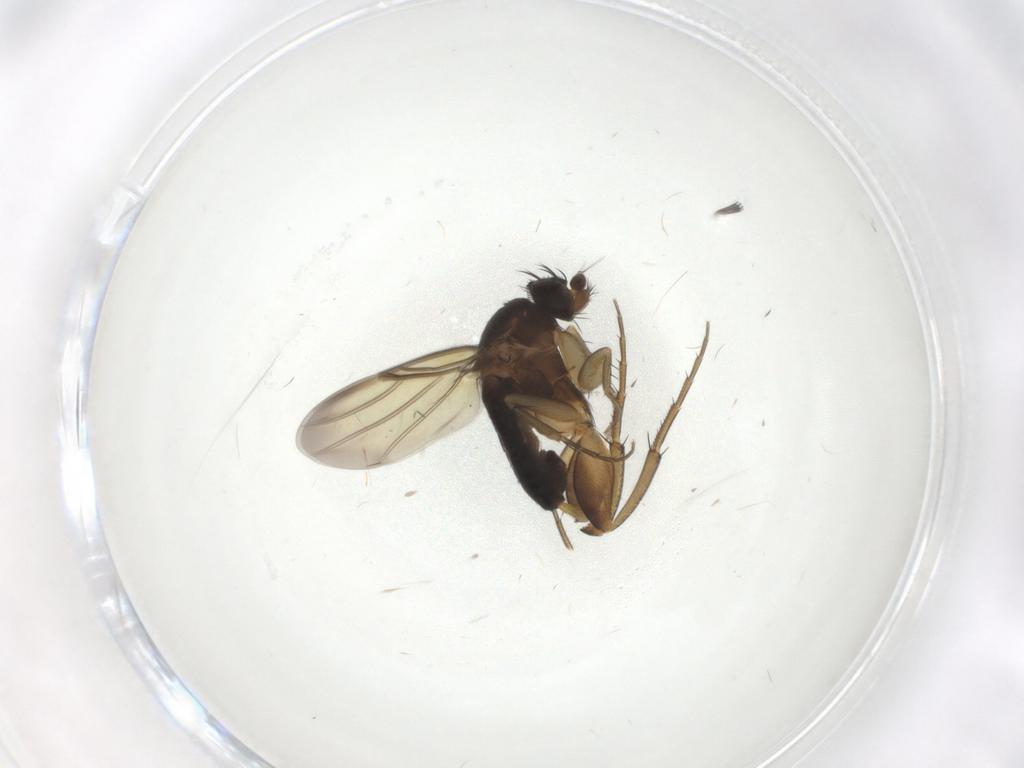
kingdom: Animalia
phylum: Arthropoda
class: Insecta
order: Diptera
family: Phoridae
